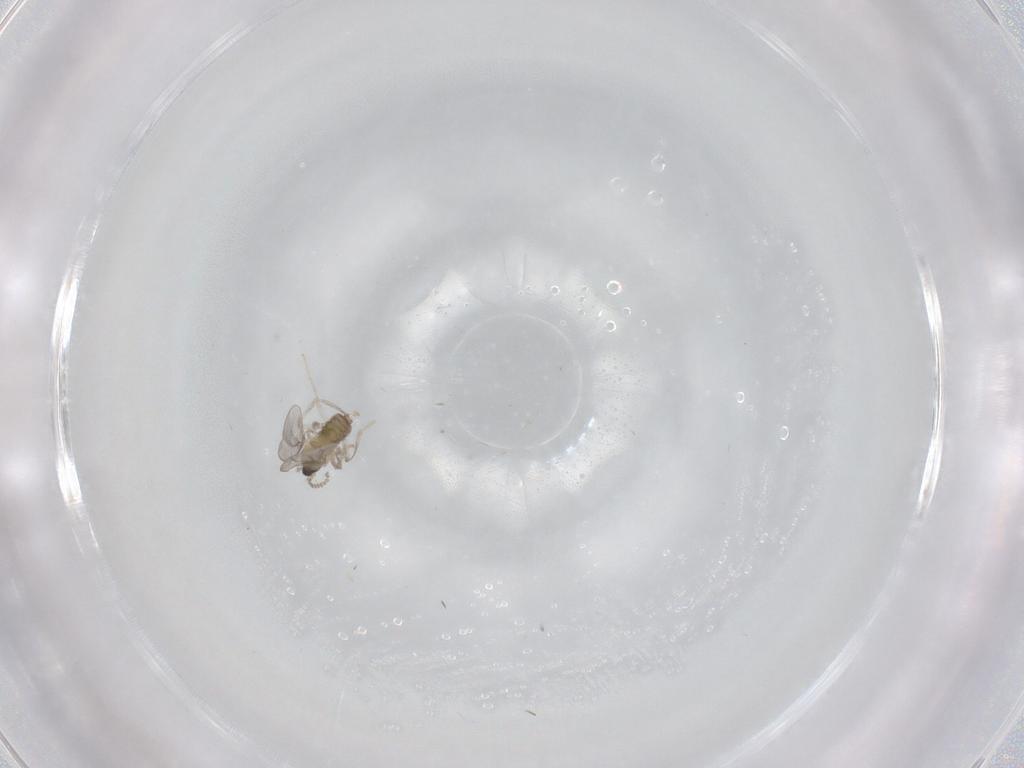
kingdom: Animalia
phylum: Arthropoda
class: Insecta
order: Diptera
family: Cecidomyiidae
